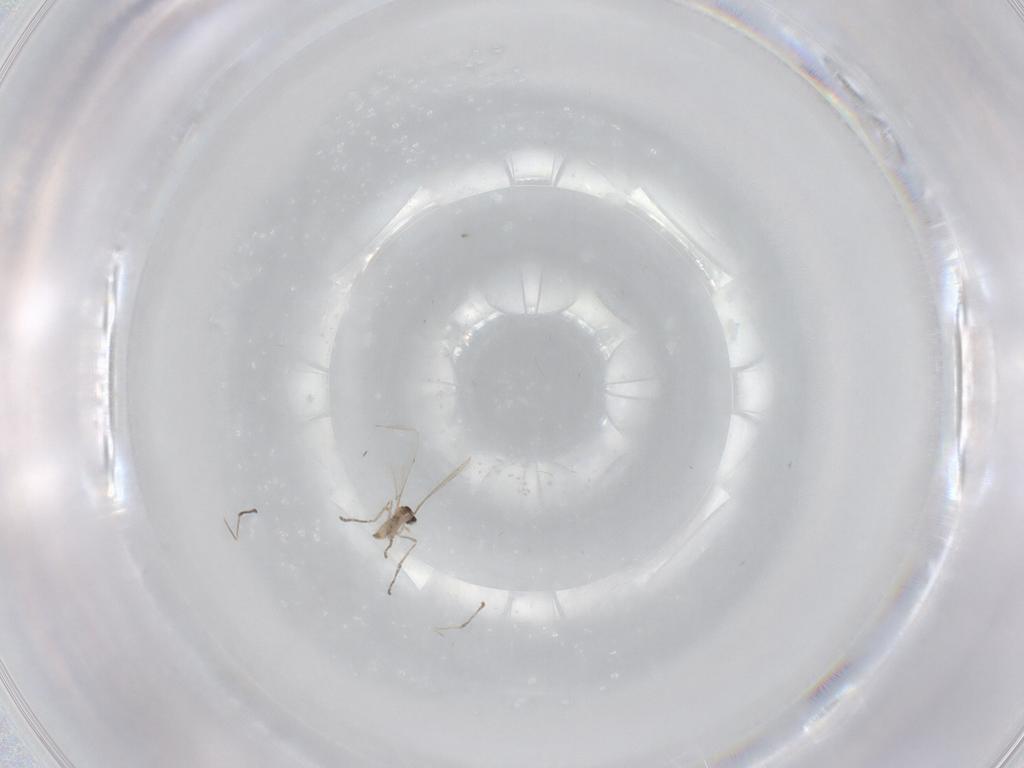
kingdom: Animalia
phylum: Arthropoda
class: Insecta
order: Diptera
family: Cecidomyiidae
